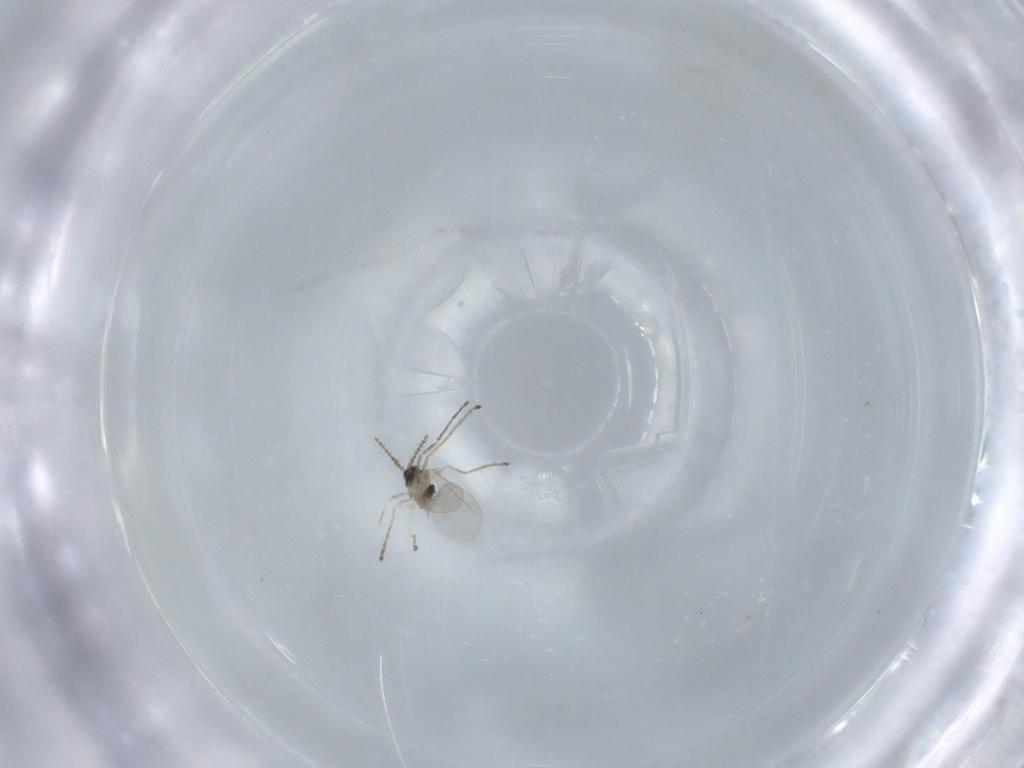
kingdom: Animalia
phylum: Arthropoda
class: Insecta
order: Diptera
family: Cecidomyiidae
